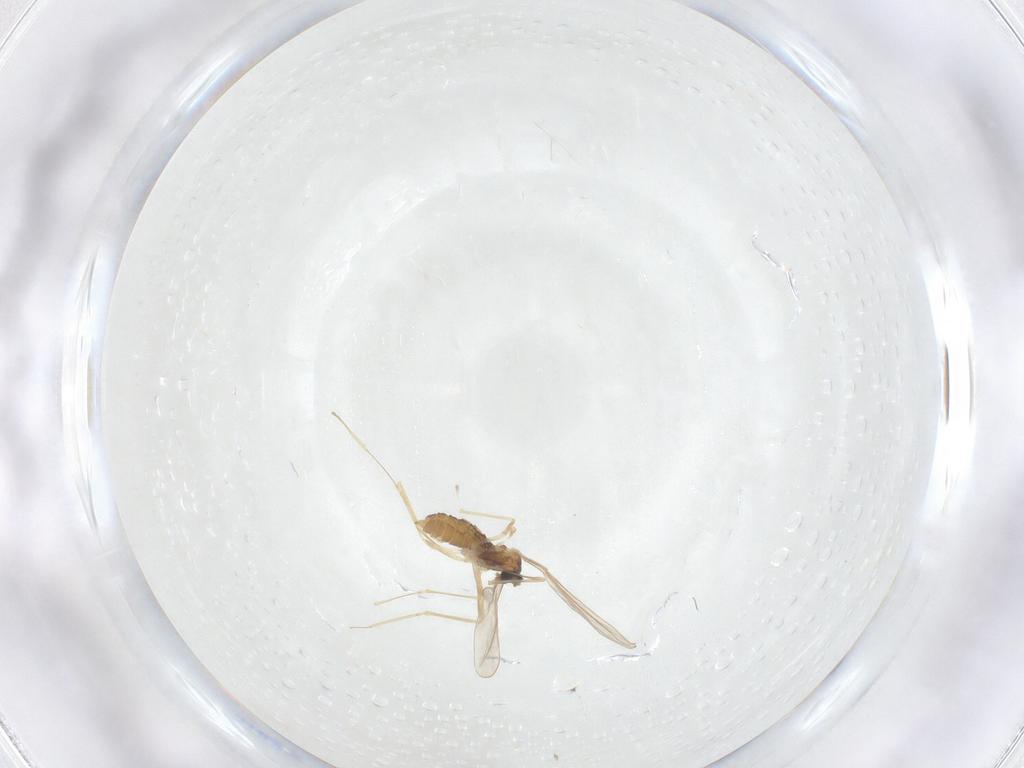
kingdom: Animalia
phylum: Arthropoda
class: Insecta
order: Diptera
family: Cecidomyiidae
